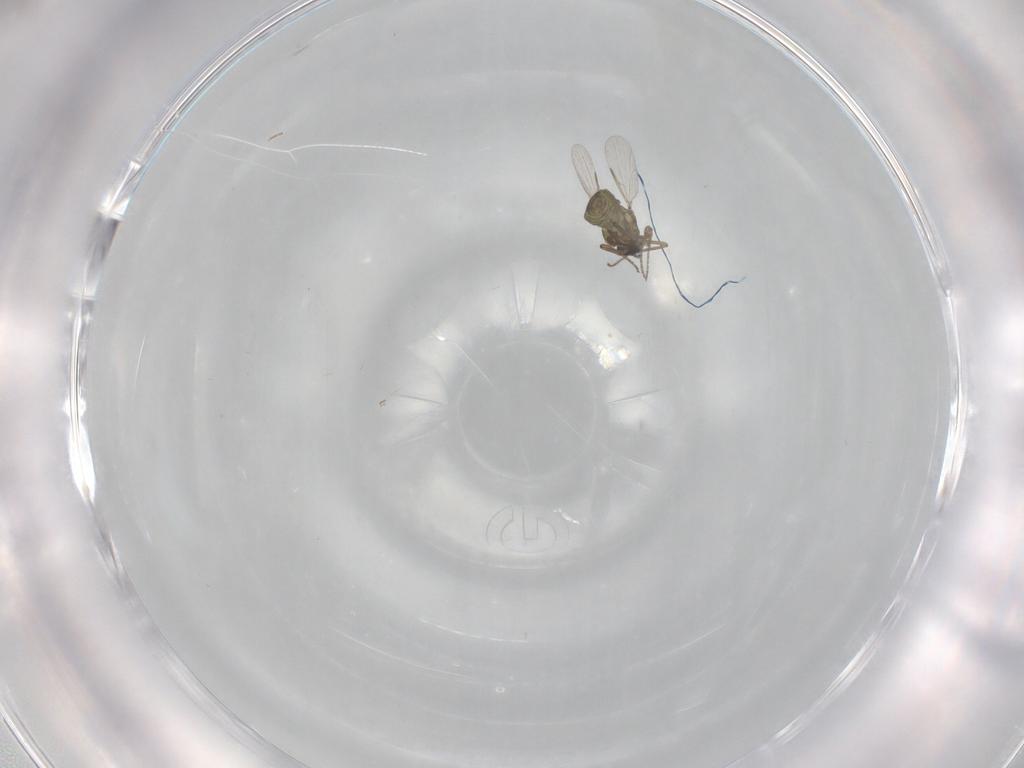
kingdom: Animalia
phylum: Arthropoda
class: Insecta
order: Diptera
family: Ceratopogonidae
